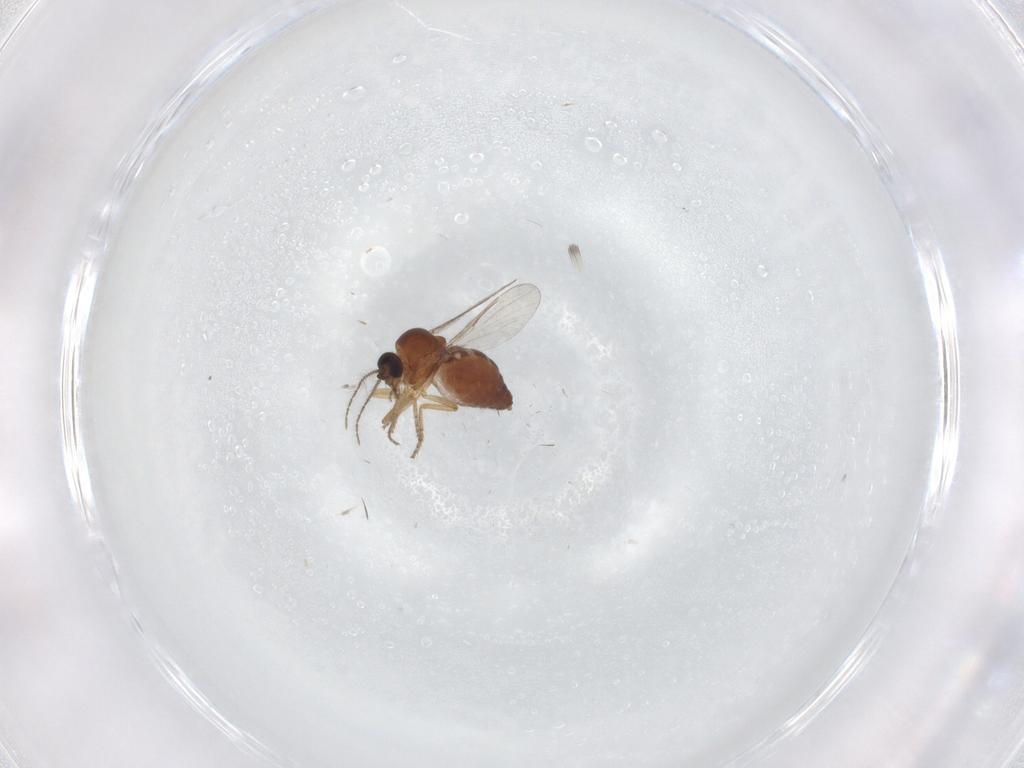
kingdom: Animalia
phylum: Arthropoda
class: Insecta
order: Diptera
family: Ceratopogonidae
